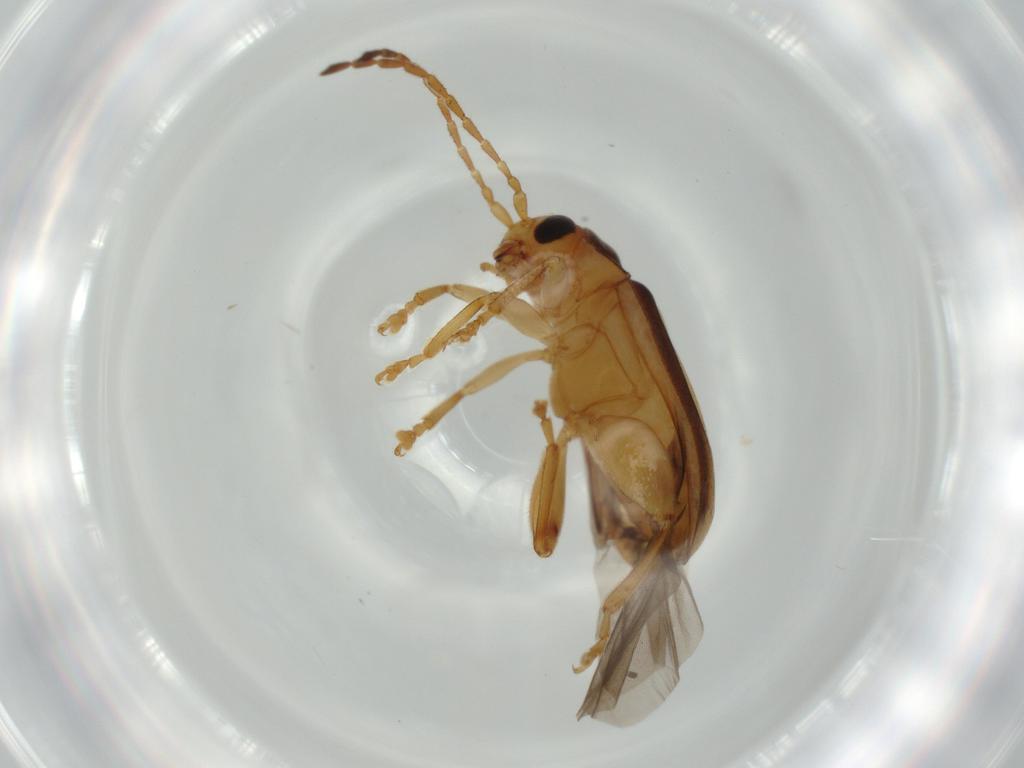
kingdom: Animalia
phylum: Arthropoda
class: Insecta
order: Coleoptera
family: Chrysomelidae
